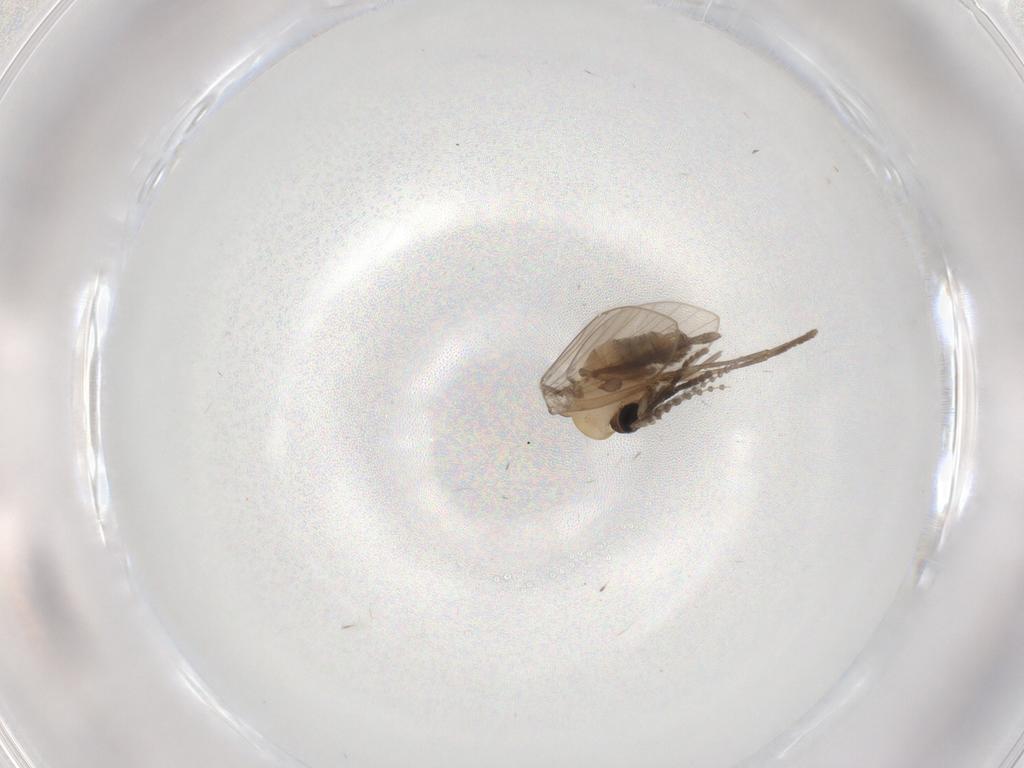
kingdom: Animalia
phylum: Arthropoda
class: Insecta
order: Diptera
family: Psychodidae
